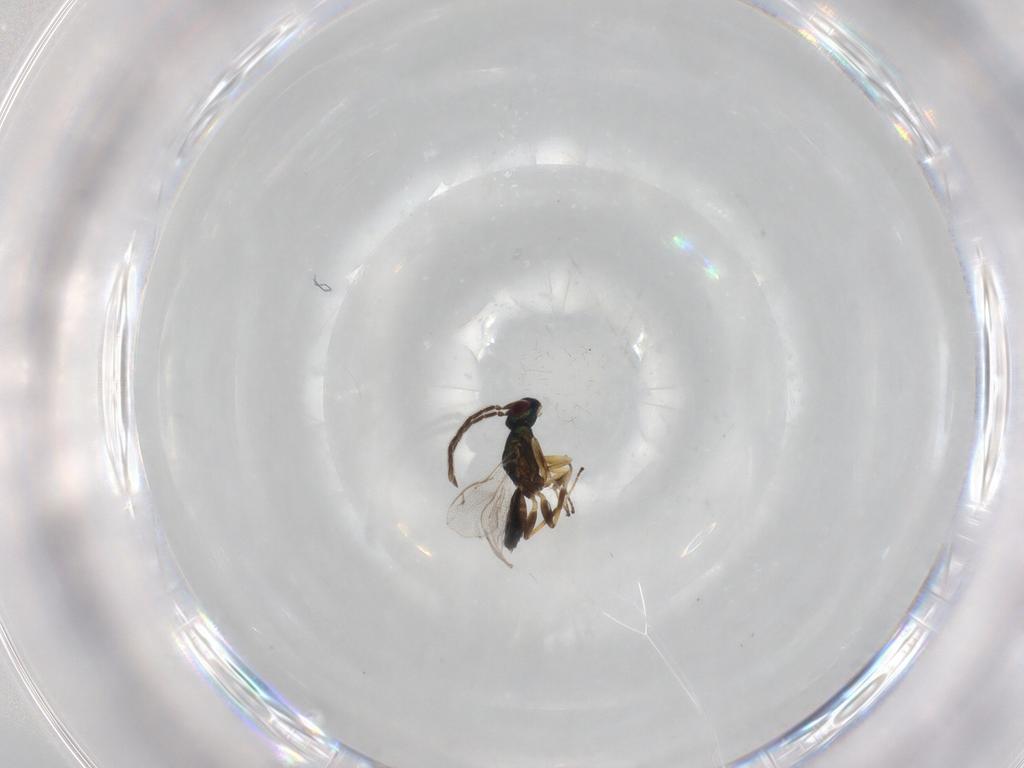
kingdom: Animalia
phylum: Arthropoda
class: Insecta
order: Hymenoptera
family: Eupelmidae
